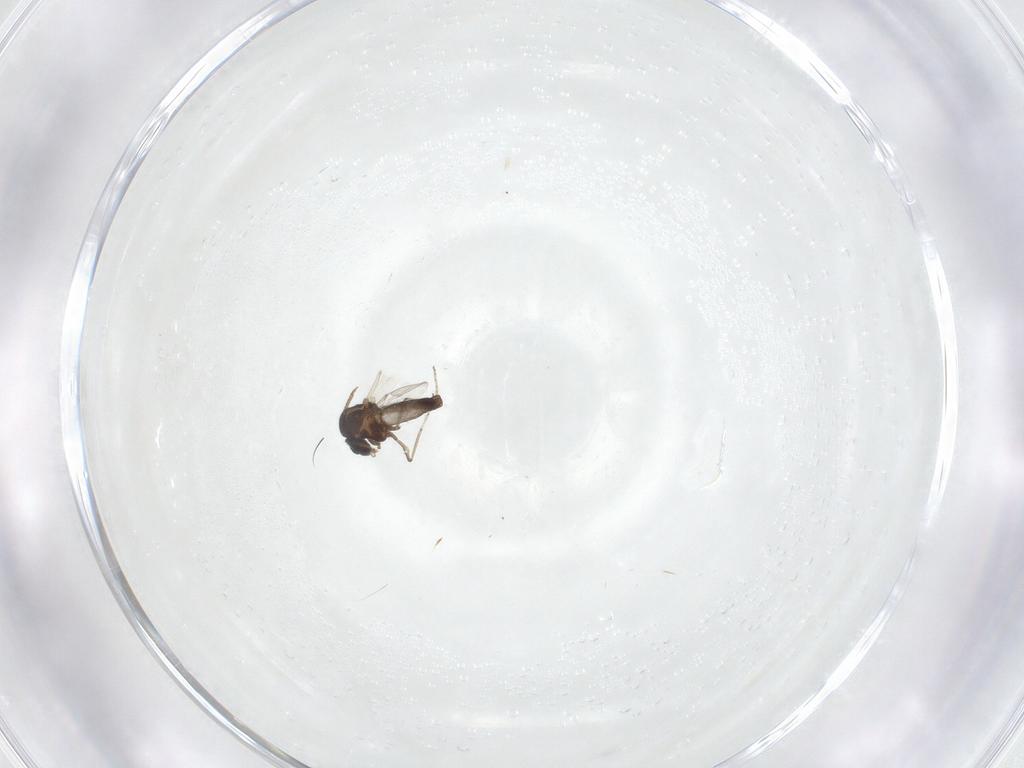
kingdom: Animalia
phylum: Arthropoda
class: Insecta
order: Diptera
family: Ceratopogonidae
